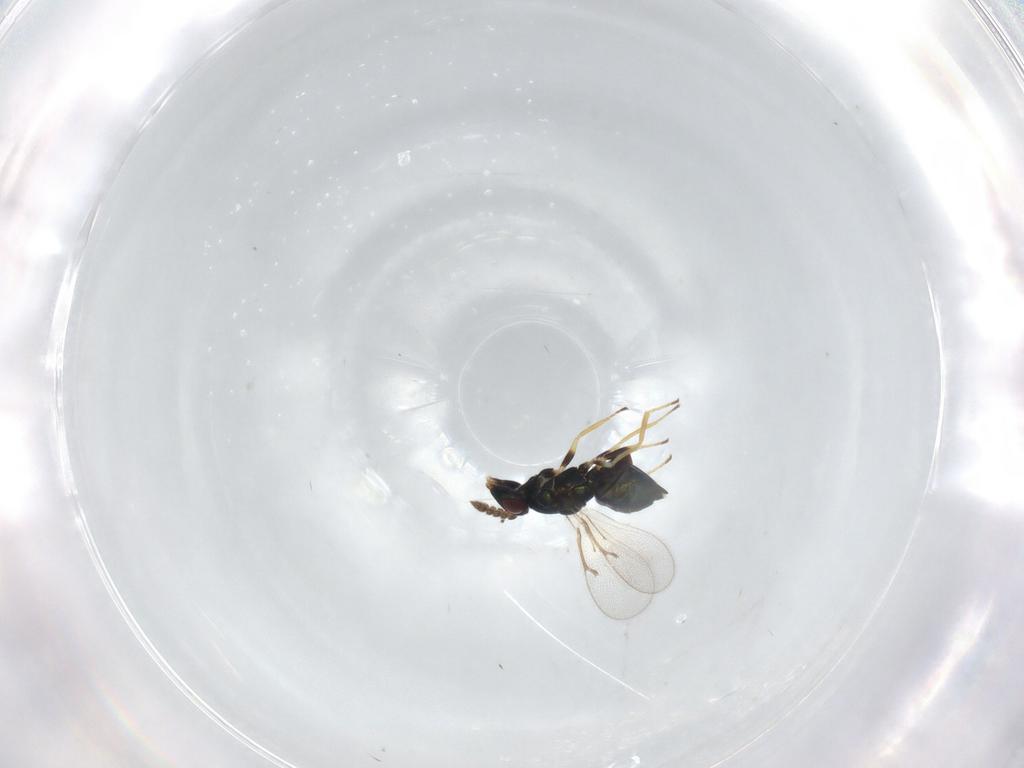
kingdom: Animalia
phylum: Arthropoda
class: Insecta
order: Hymenoptera
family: Eulophidae
